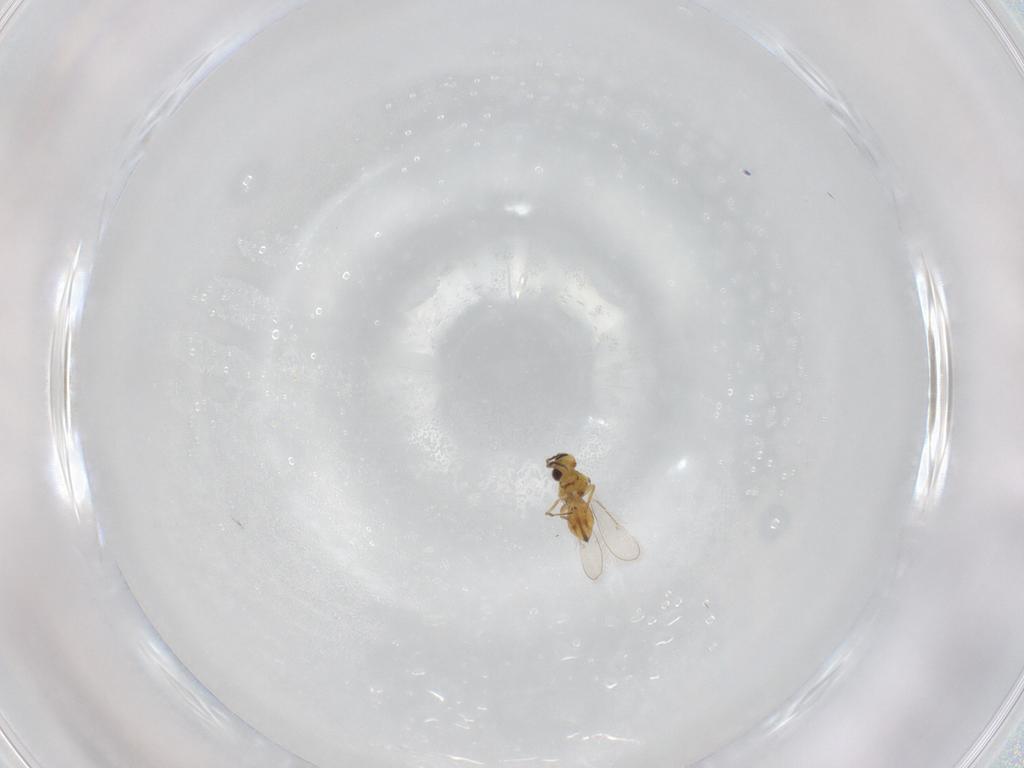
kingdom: Animalia
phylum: Arthropoda
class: Insecta
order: Hymenoptera
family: Eulophidae
